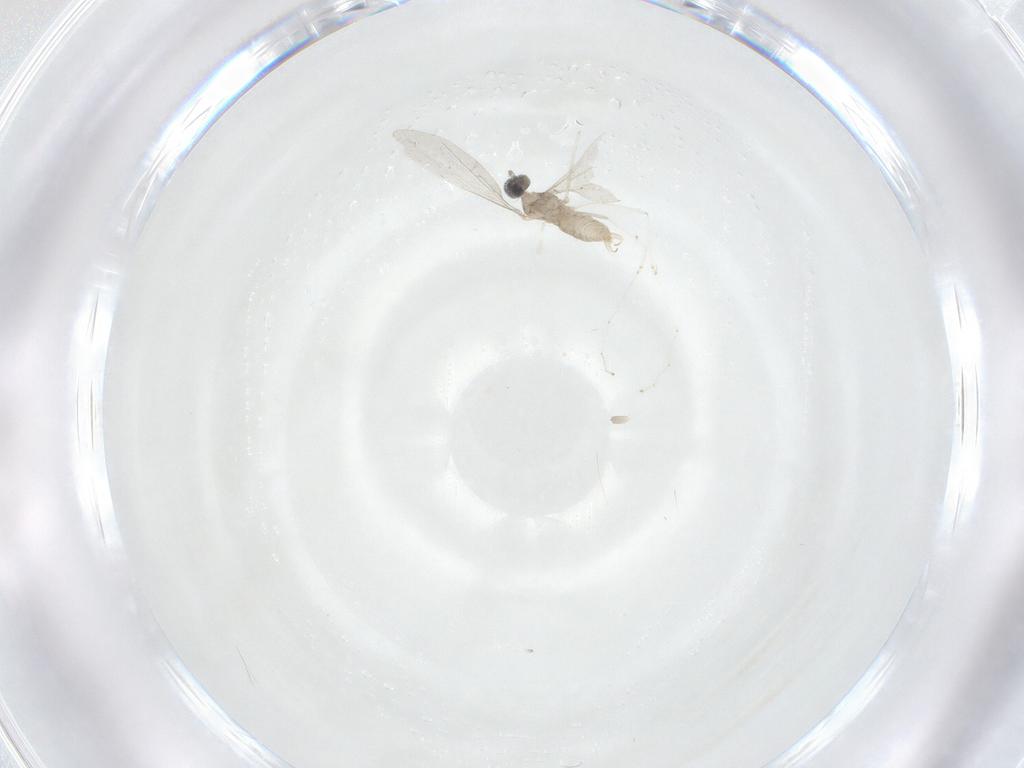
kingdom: Animalia
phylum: Arthropoda
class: Insecta
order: Diptera
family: Cecidomyiidae
